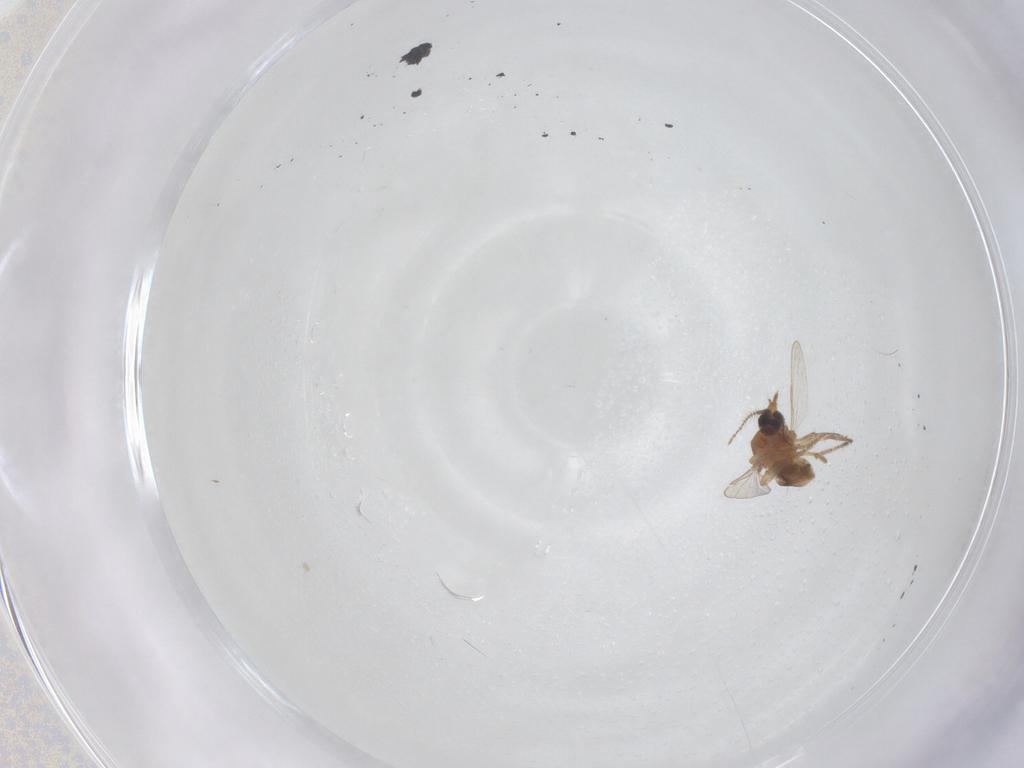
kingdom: Animalia
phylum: Arthropoda
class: Insecta
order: Diptera
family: Ceratopogonidae
